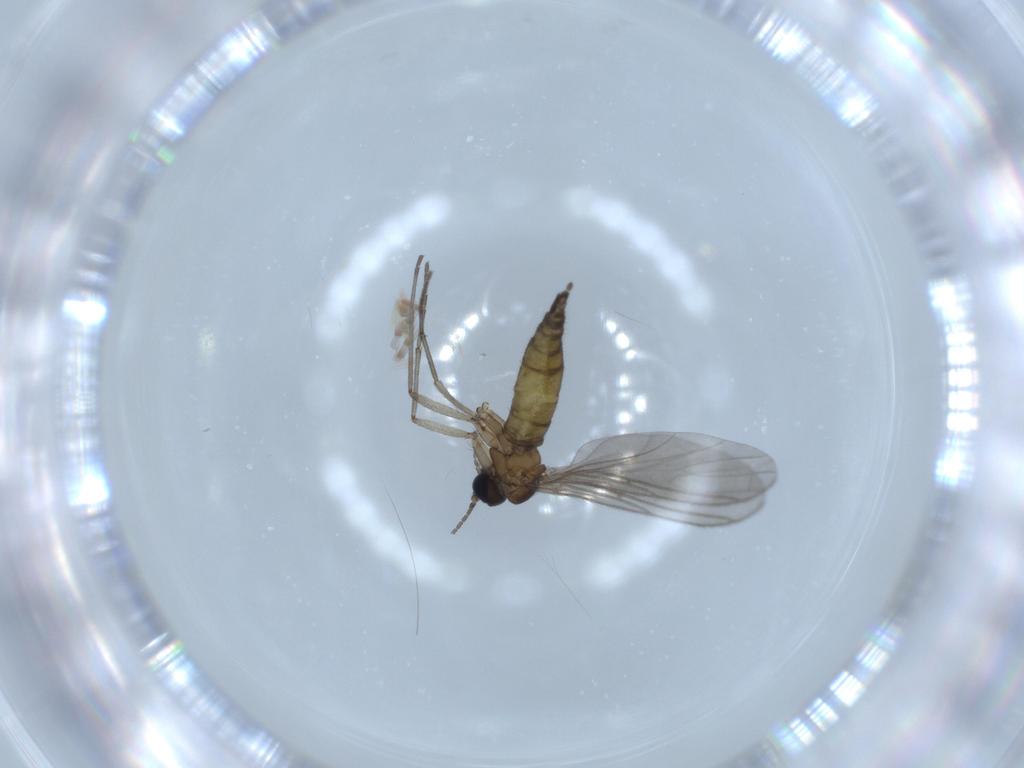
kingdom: Animalia
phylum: Arthropoda
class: Insecta
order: Diptera
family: Sciaridae
